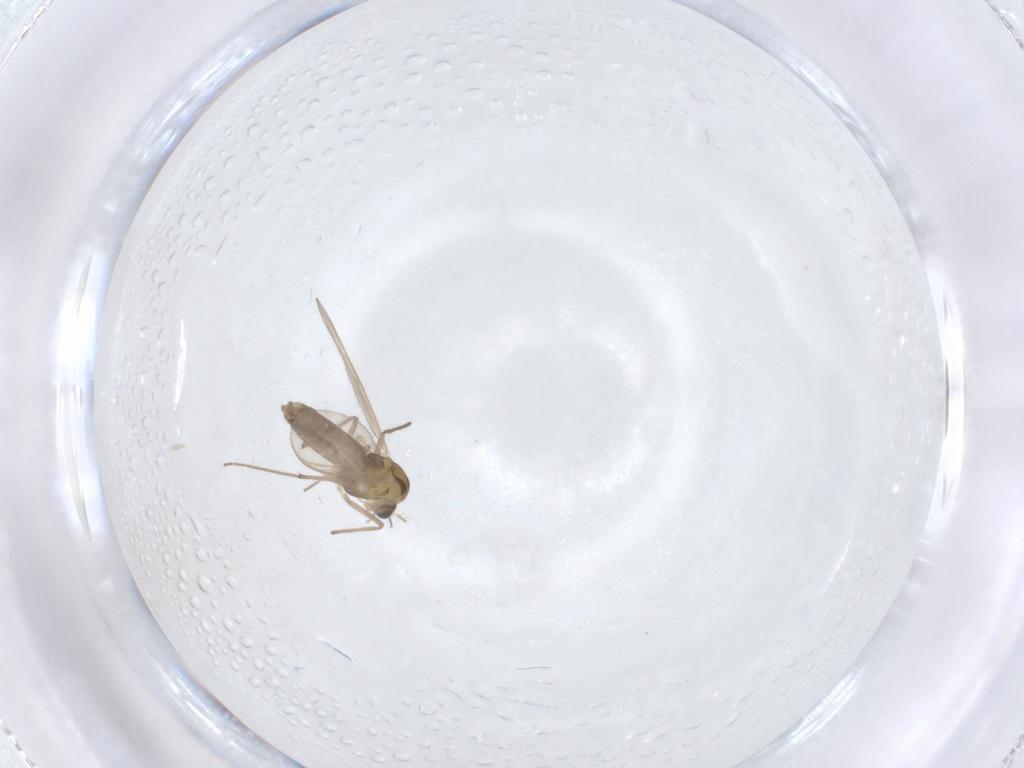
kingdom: Animalia
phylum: Arthropoda
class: Insecta
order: Diptera
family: Chironomidae
